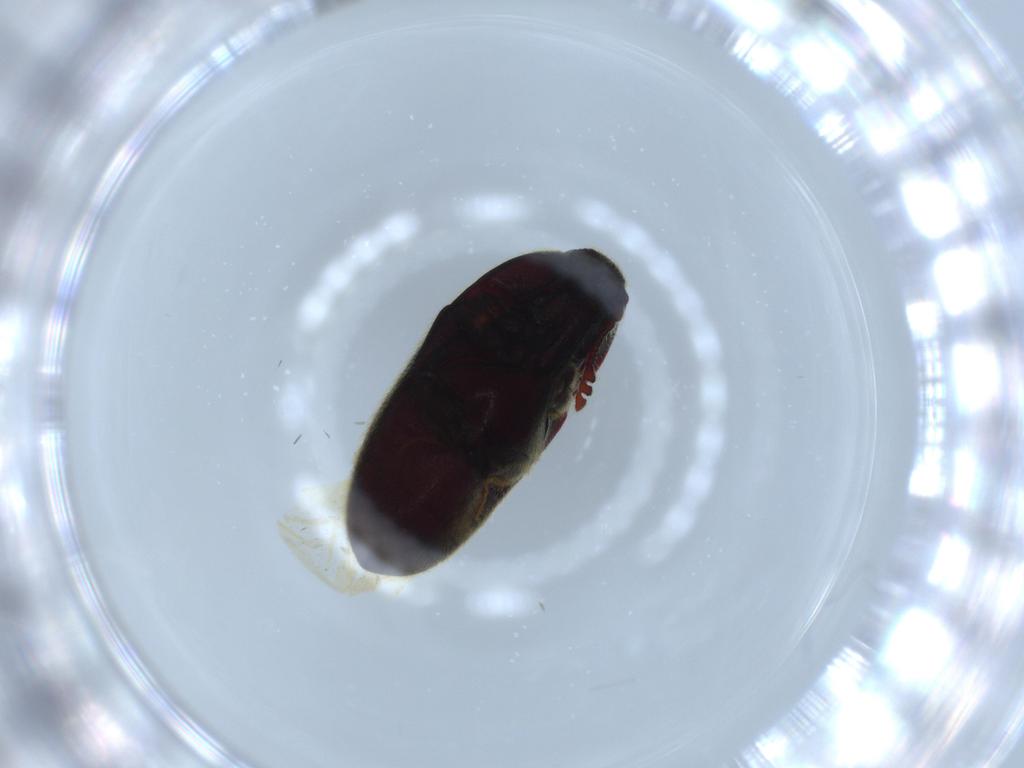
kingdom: Animalia
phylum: Arthropoda
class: Insecta
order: Coleoptera
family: Throscidae
